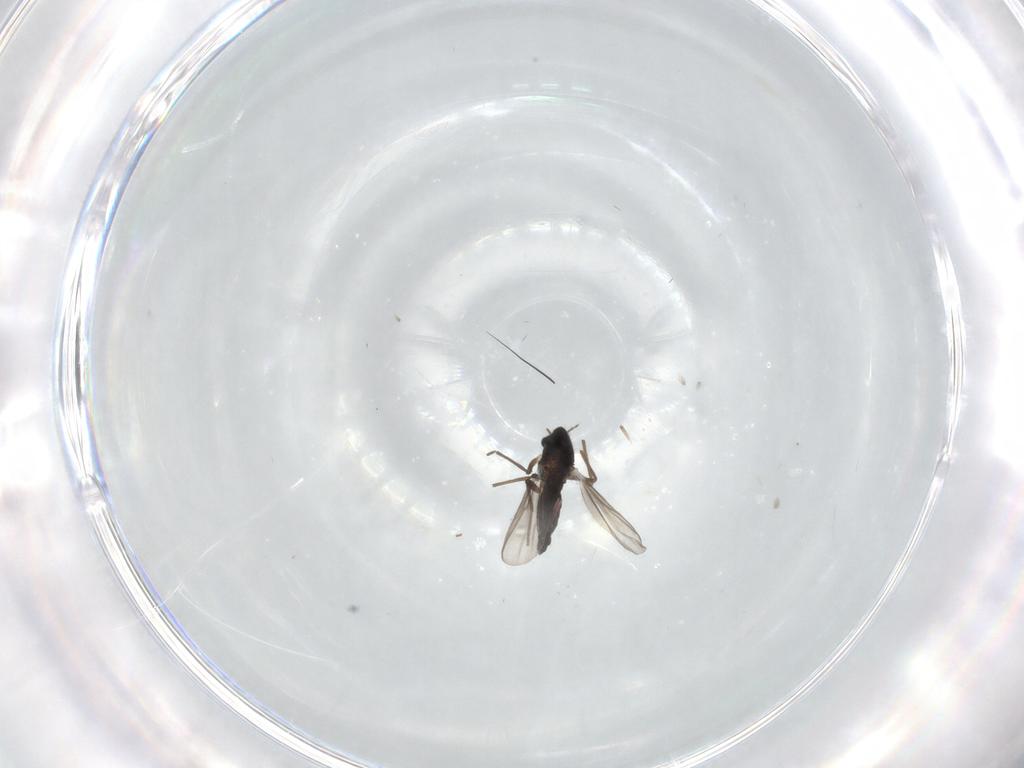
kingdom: Animalia
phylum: Arthropoda
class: Insecta
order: Diptera
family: Chironomidae
